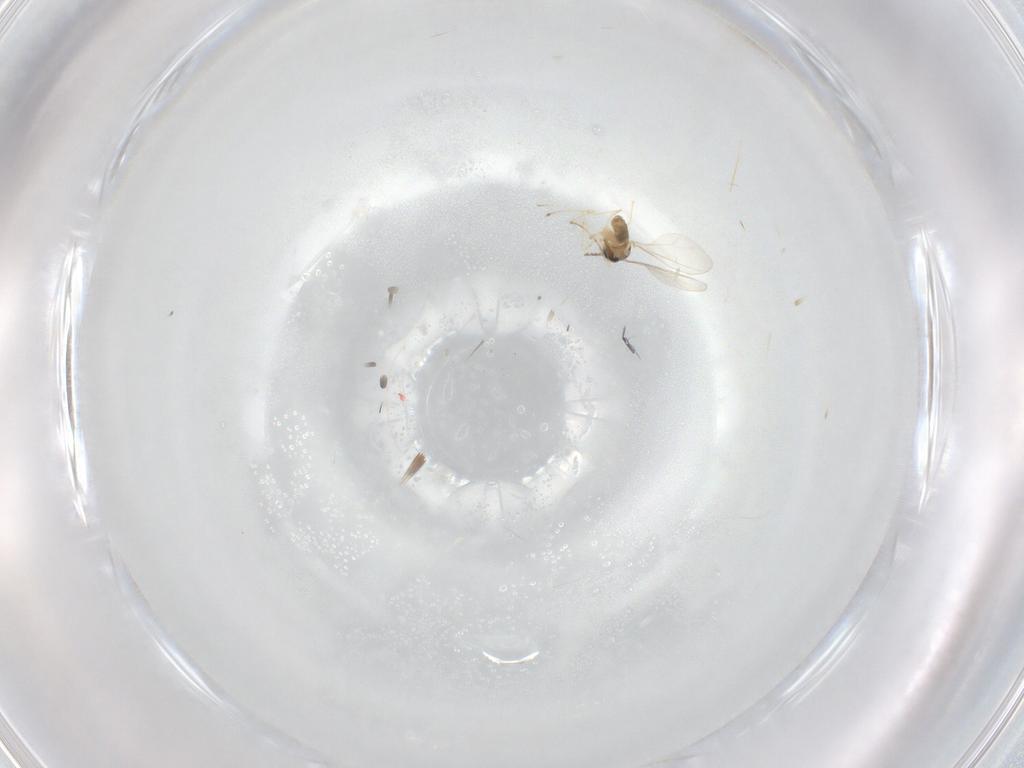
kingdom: Animalia
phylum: Arthropoda
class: Insecta
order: Diptera
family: Cecidomyiidae
